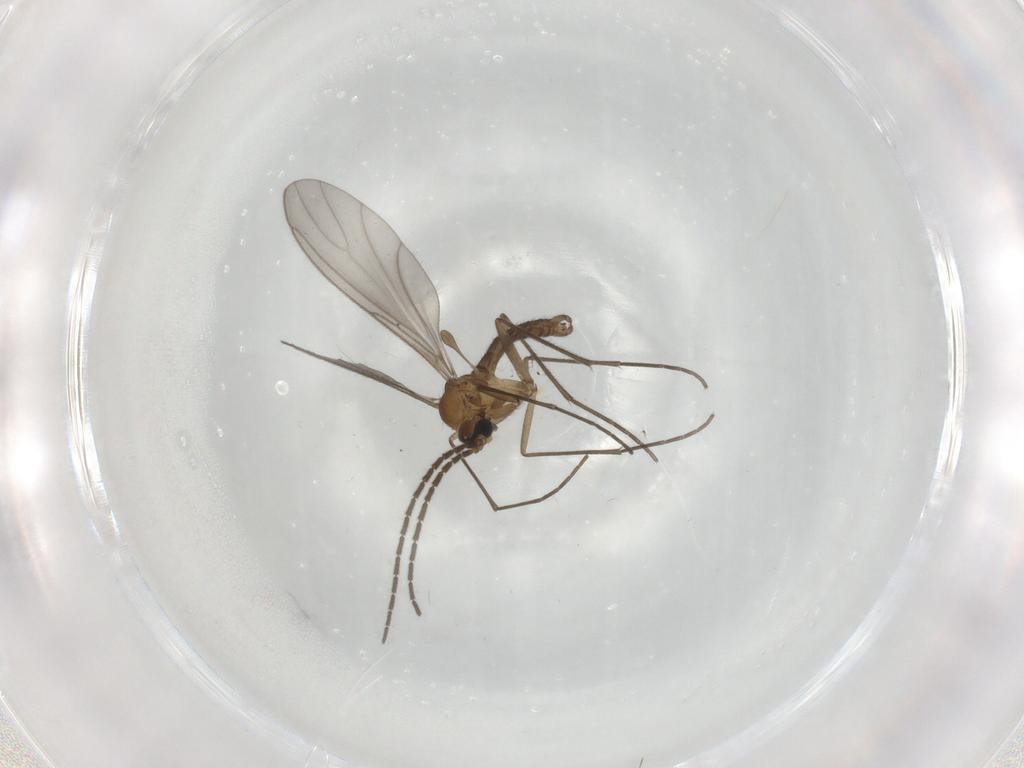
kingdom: Animalia
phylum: Arthropoda
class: Insecta
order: Diptera
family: Sciaridae
